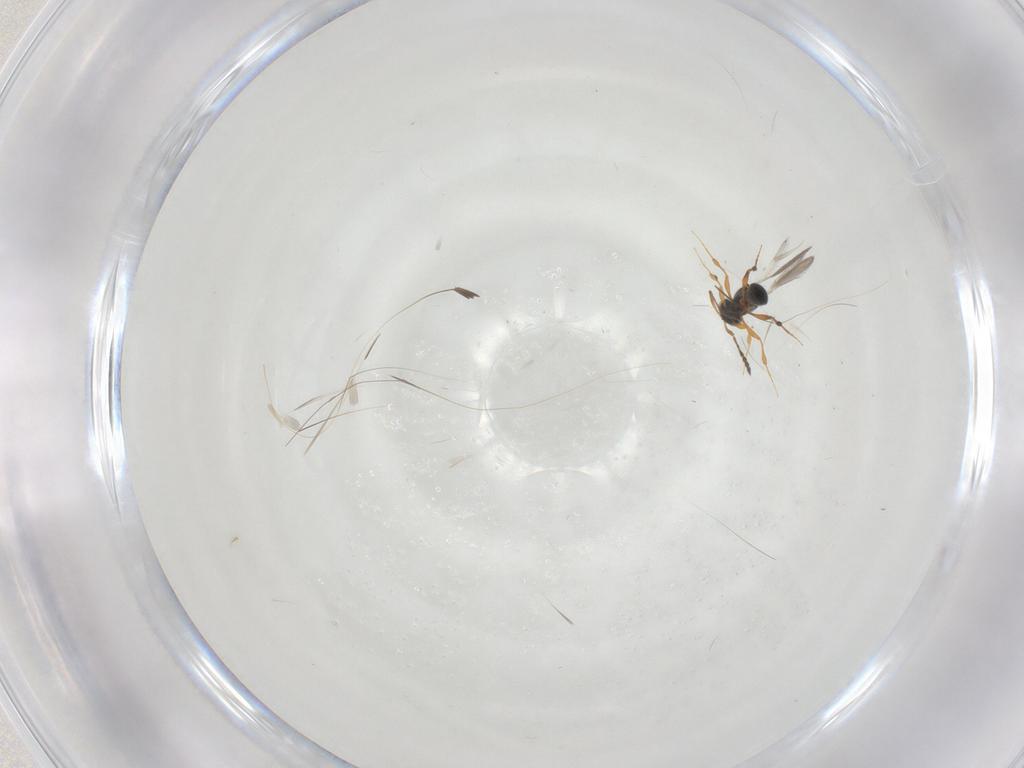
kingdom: Animalia
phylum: Arthropoda
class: Insecta
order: Hymenoptera
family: Platygastridae
